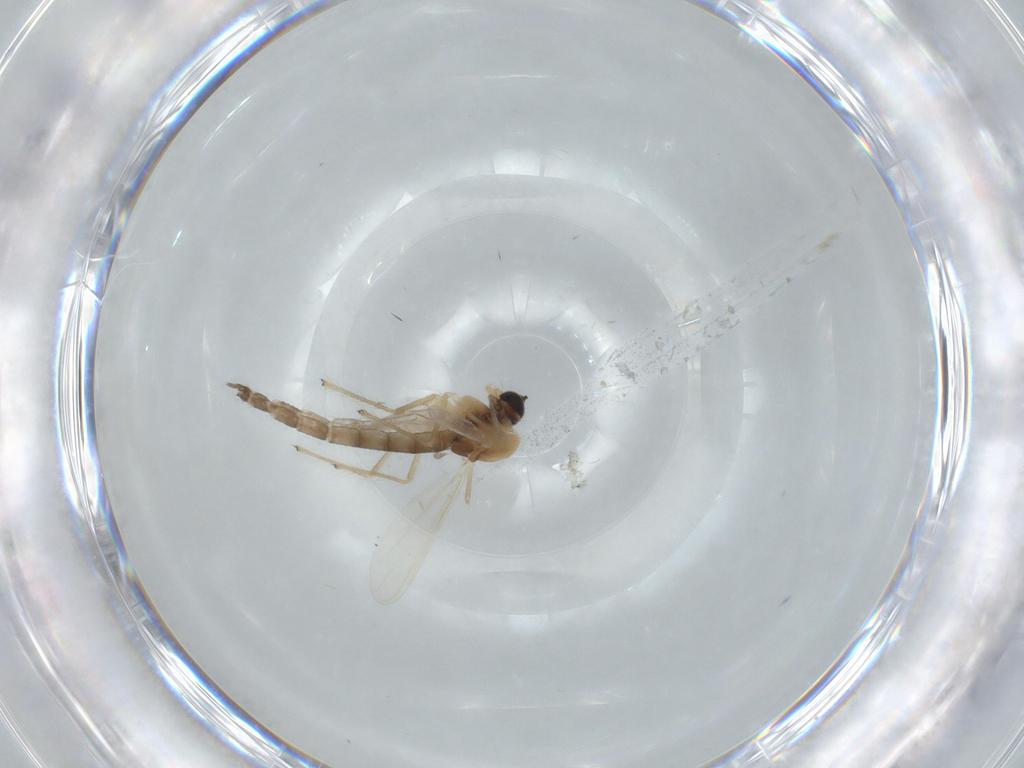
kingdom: Animalia
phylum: Arthropoda
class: Insecta
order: Diptera
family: Chironomidae
